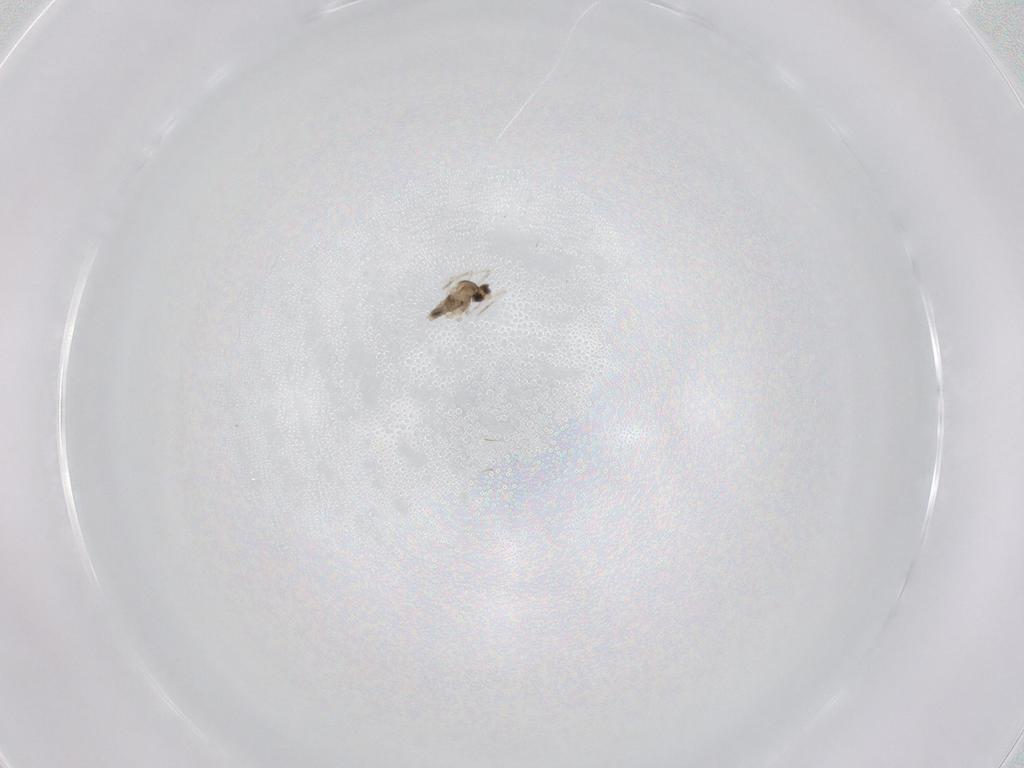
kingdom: Animalia
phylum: Arthropoda
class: Insecta
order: Diptera
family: Cecidomyiidae
